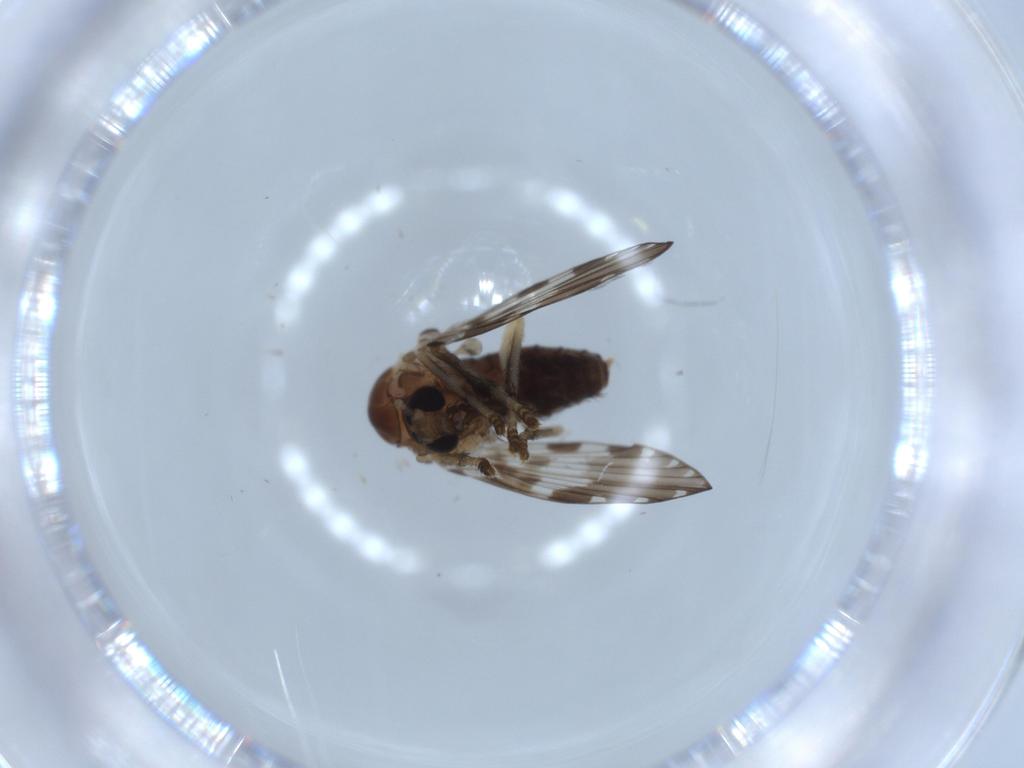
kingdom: Animalia
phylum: Arthropoda
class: Insecta
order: Diptera
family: Psychodidae
